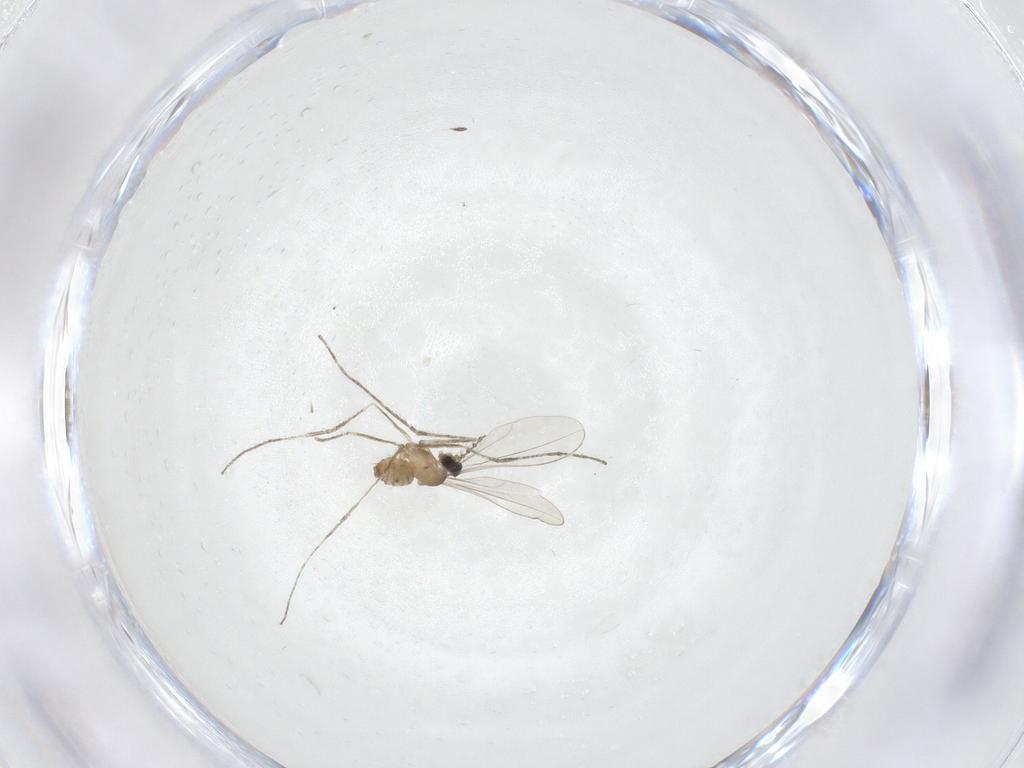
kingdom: Animalia
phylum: Arthropoda
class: Insecta
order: Diptera
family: Cecidomyiidae
